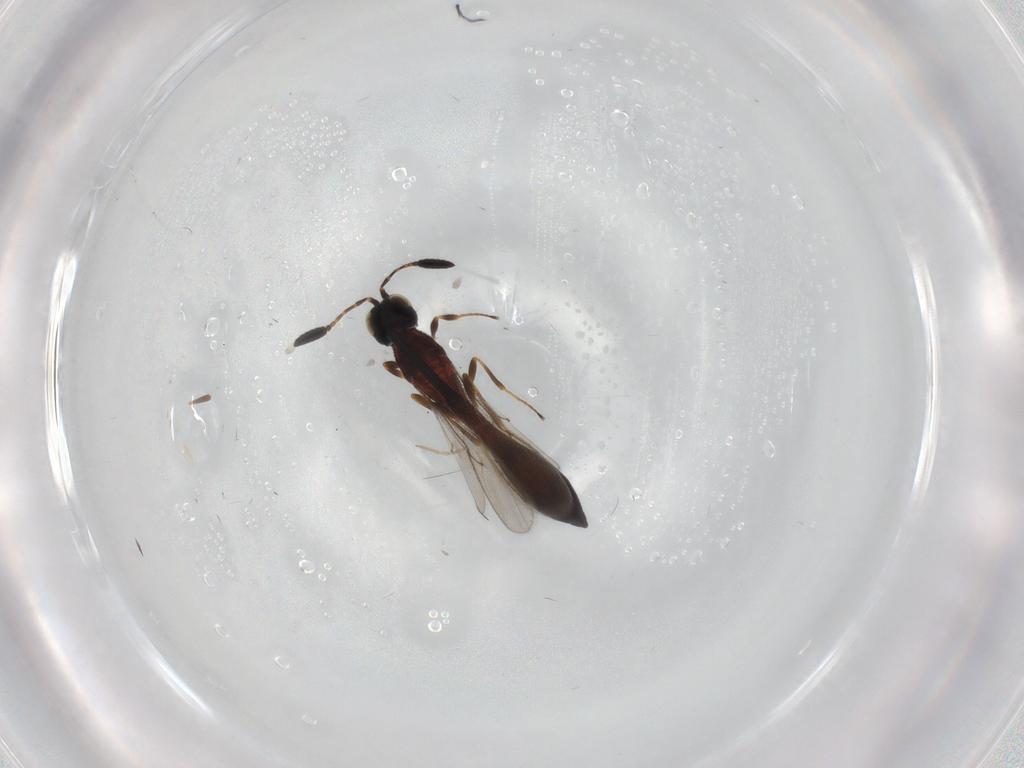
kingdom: Animalia
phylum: Arthropoda
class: Insecta
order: Hymenoptera
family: Scelionidae
